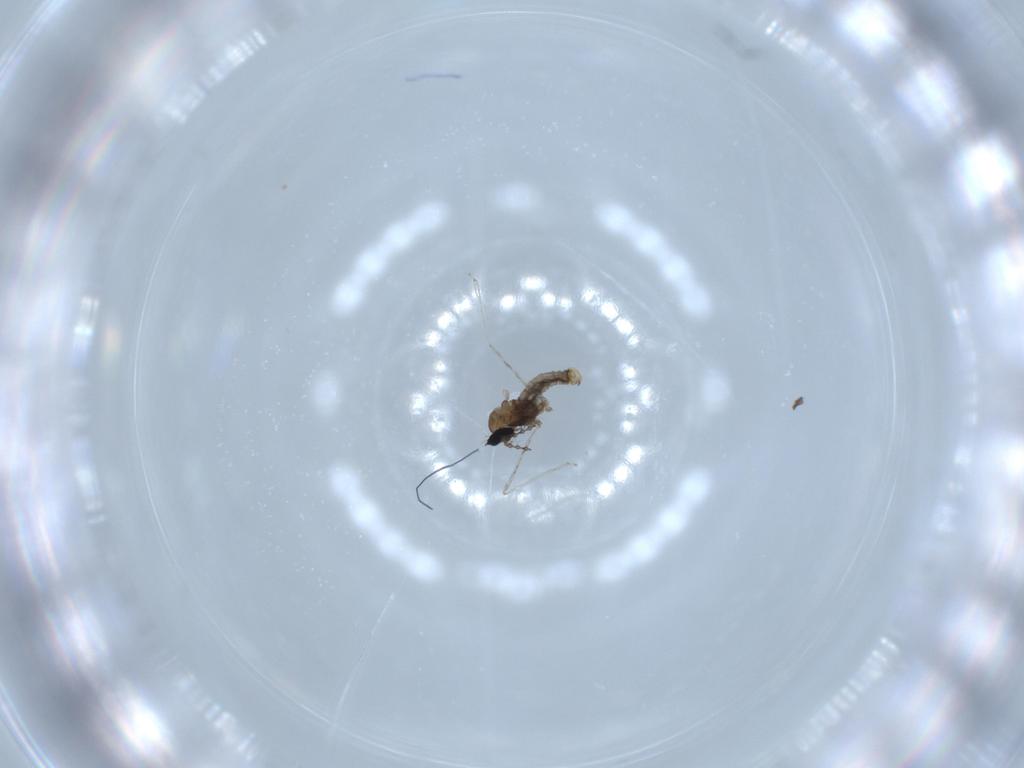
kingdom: Animalia
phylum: Arthropoda
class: Insecta
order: Diptera
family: Cecidomyiidae
